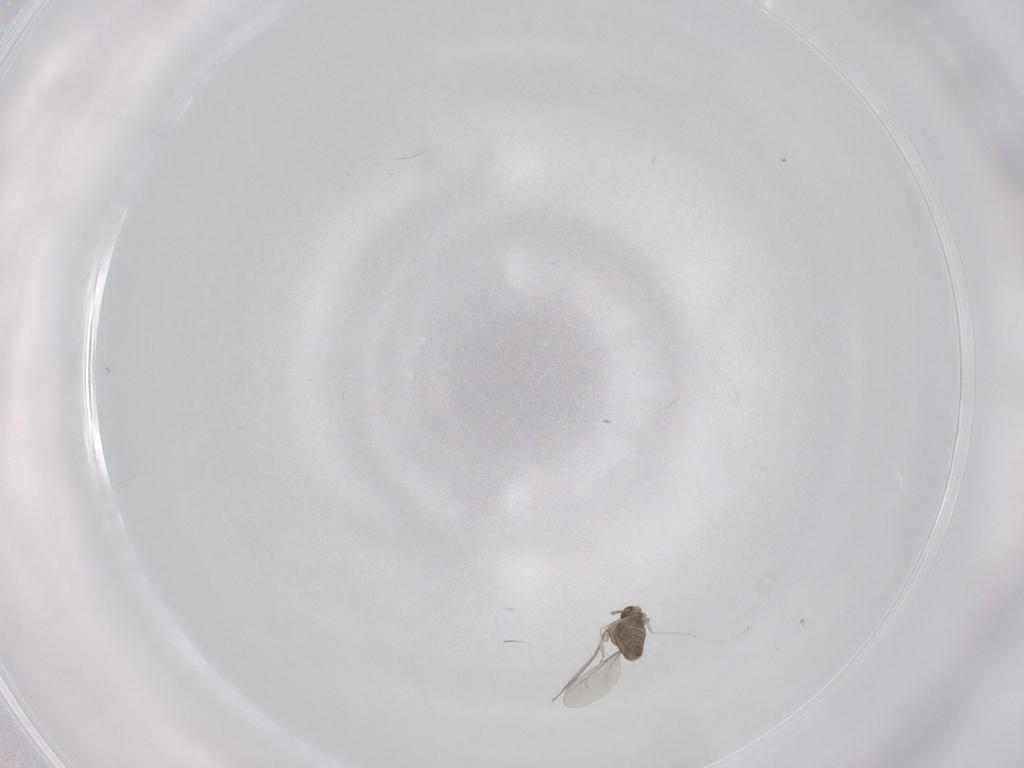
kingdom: Animalia
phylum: Arthropoda
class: Insecta
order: Diptera
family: Cecidomyiidae
